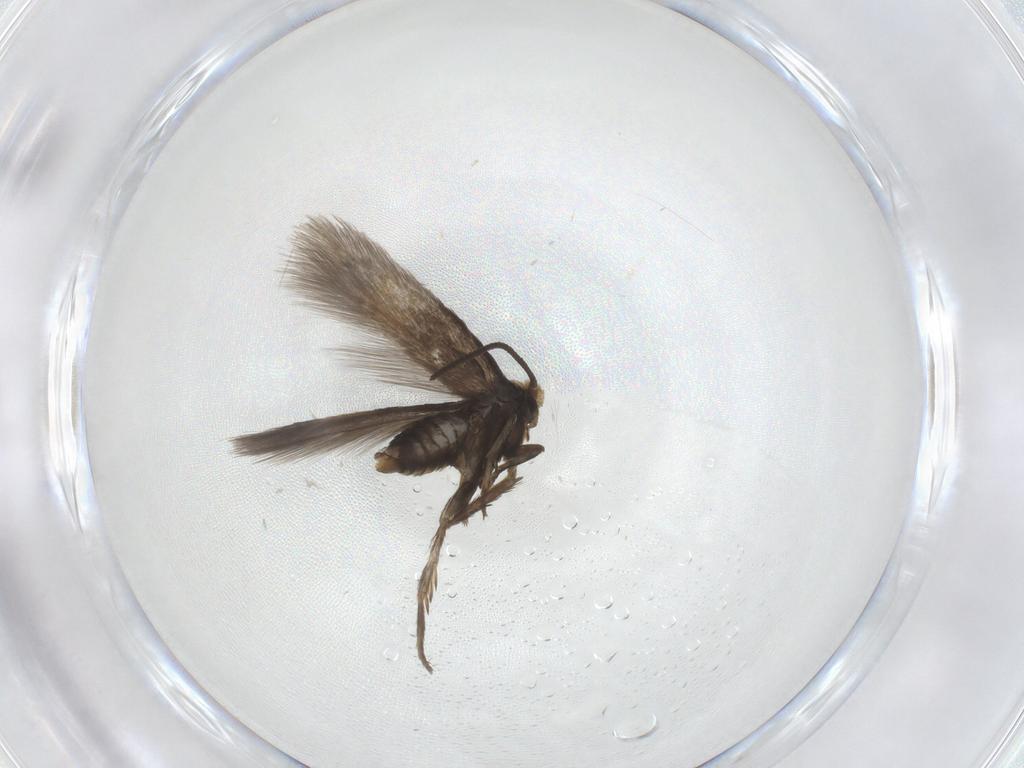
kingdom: Animalia
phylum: Arthropoda
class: Insecta
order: Lepidoptera
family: Nepticulidae
